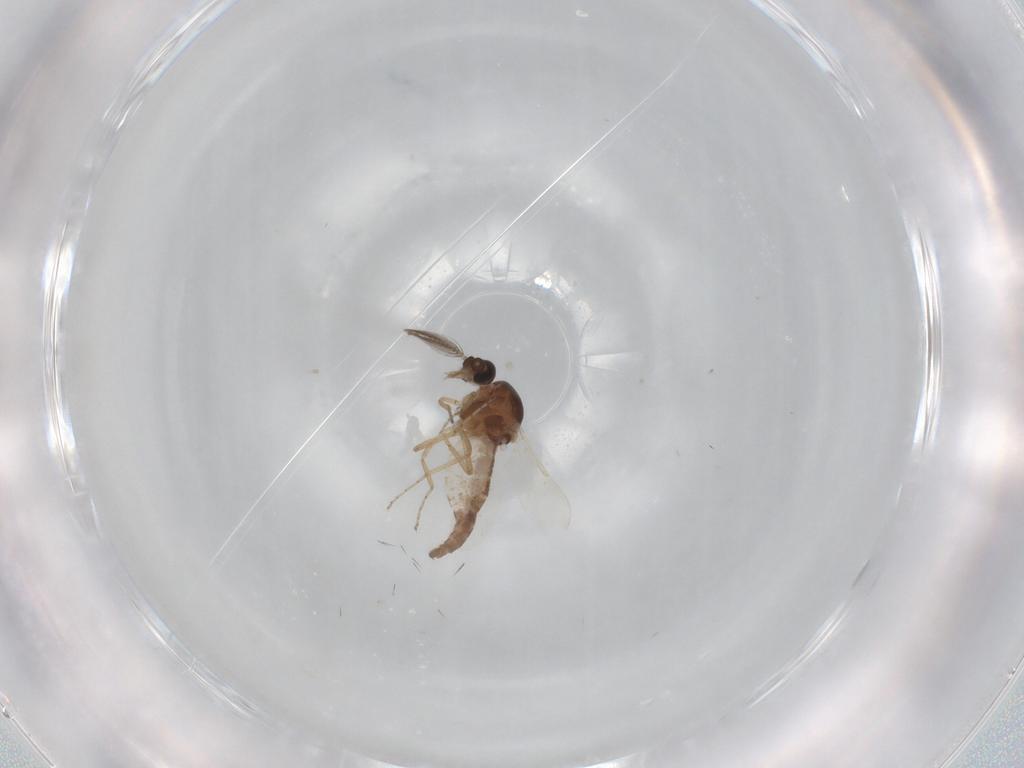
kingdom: Animalia
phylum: Arthropoda
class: Insecta
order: Diptera
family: Ceratopogonidae
